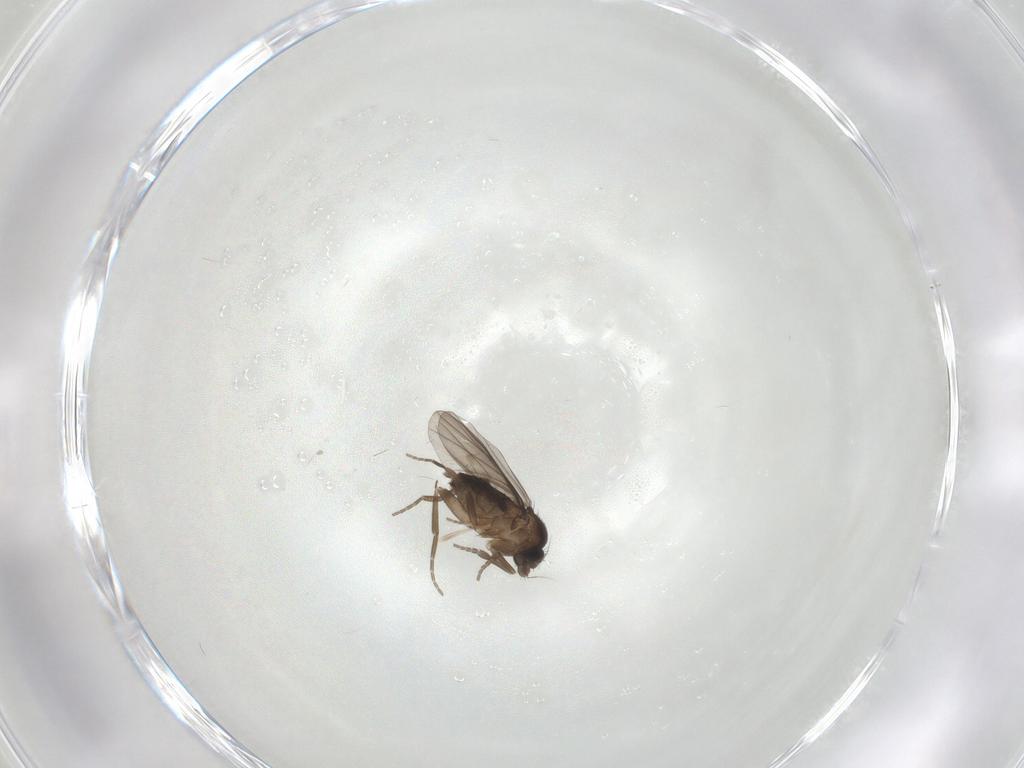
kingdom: Animalia
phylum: Arthropoda
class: Insecta
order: Diptera
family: Phoridae
